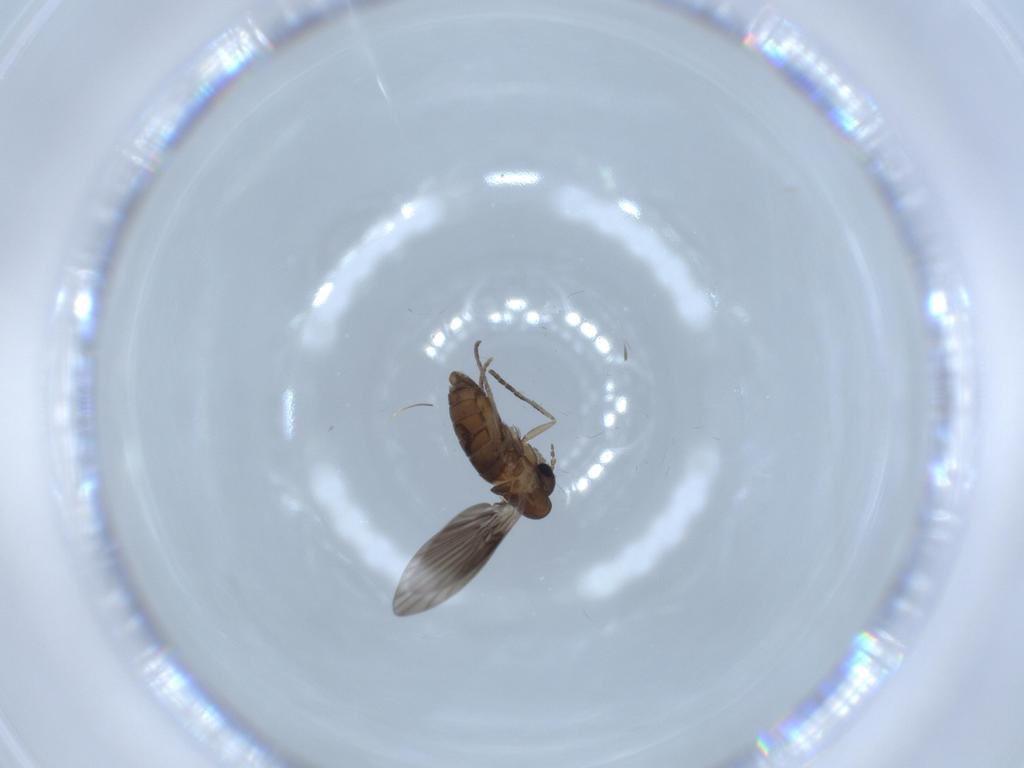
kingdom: Animalia
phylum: Arthropoda
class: Insecta
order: Diptera
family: Psychodidae
